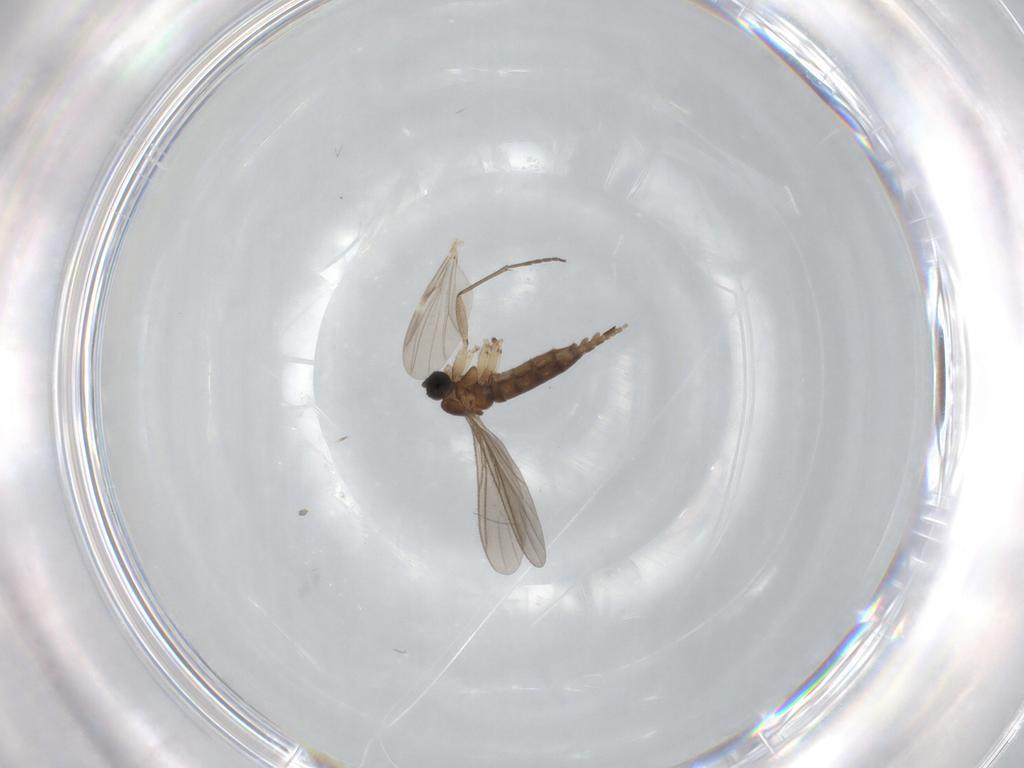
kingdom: Animalia
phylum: Arthropoda
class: Insecta
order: Diptera
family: Ceratopogonidae
